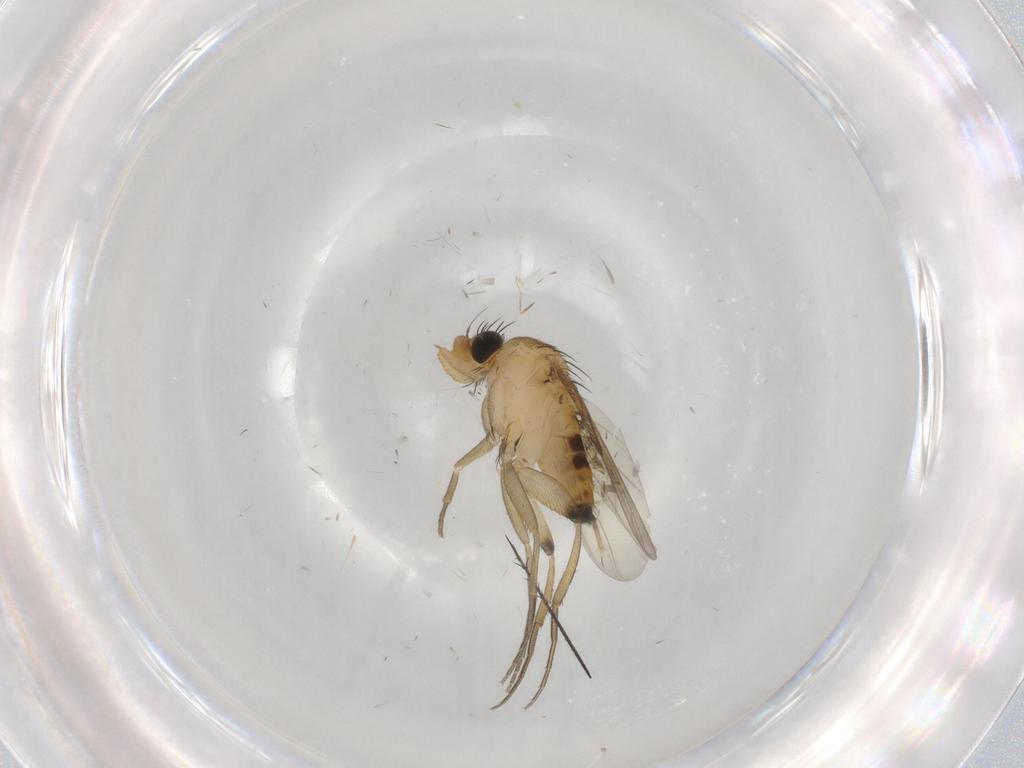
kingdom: Animalia
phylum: Arthropoda
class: Insecta
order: Diptera
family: Phoridae
